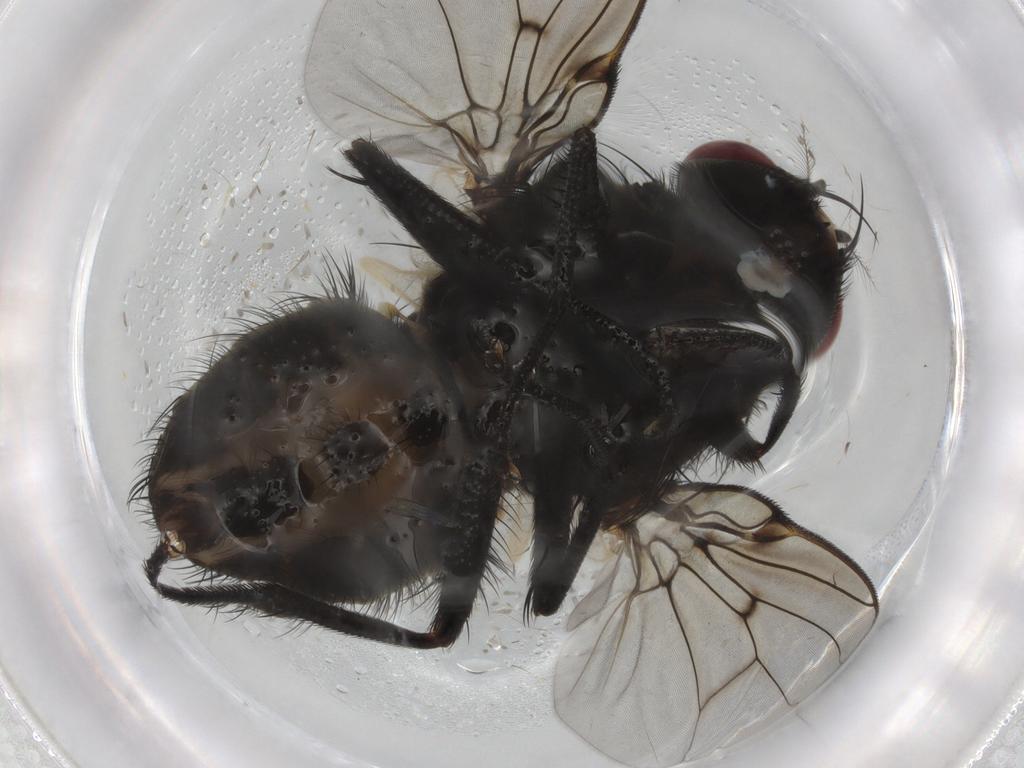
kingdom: Animalia
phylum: Arthropoda
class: Insecta
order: Diptera
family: Muscidae
